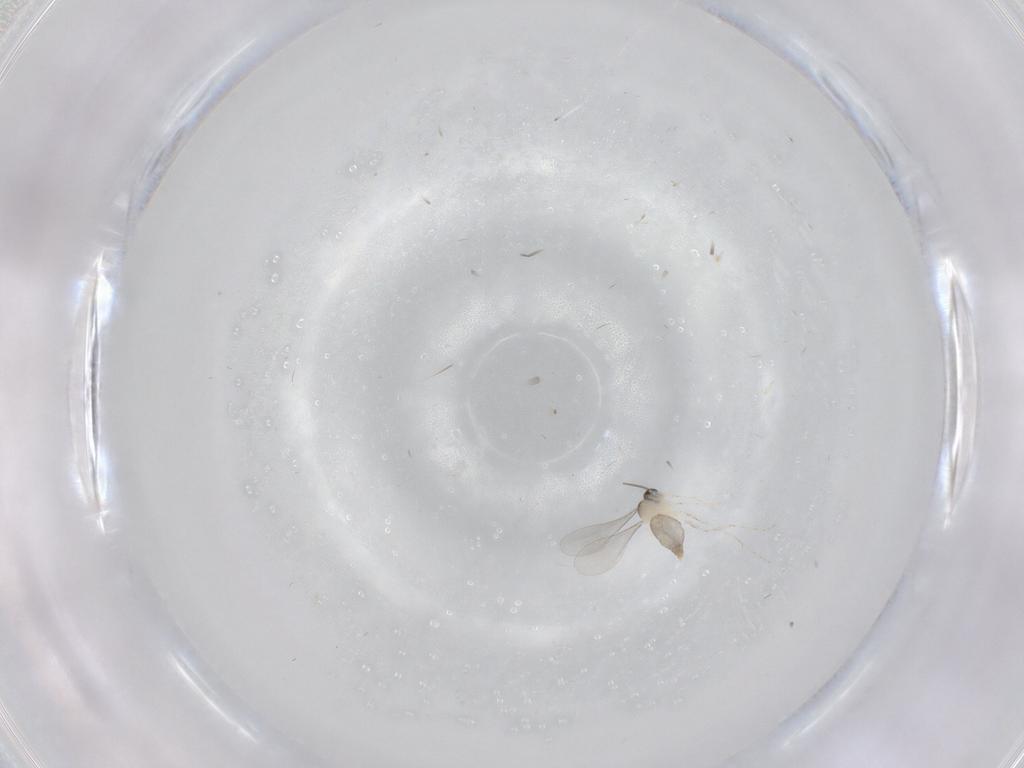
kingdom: Animalia
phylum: Arthropoda
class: Insecta
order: Diptera
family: Cecidomyiidae
